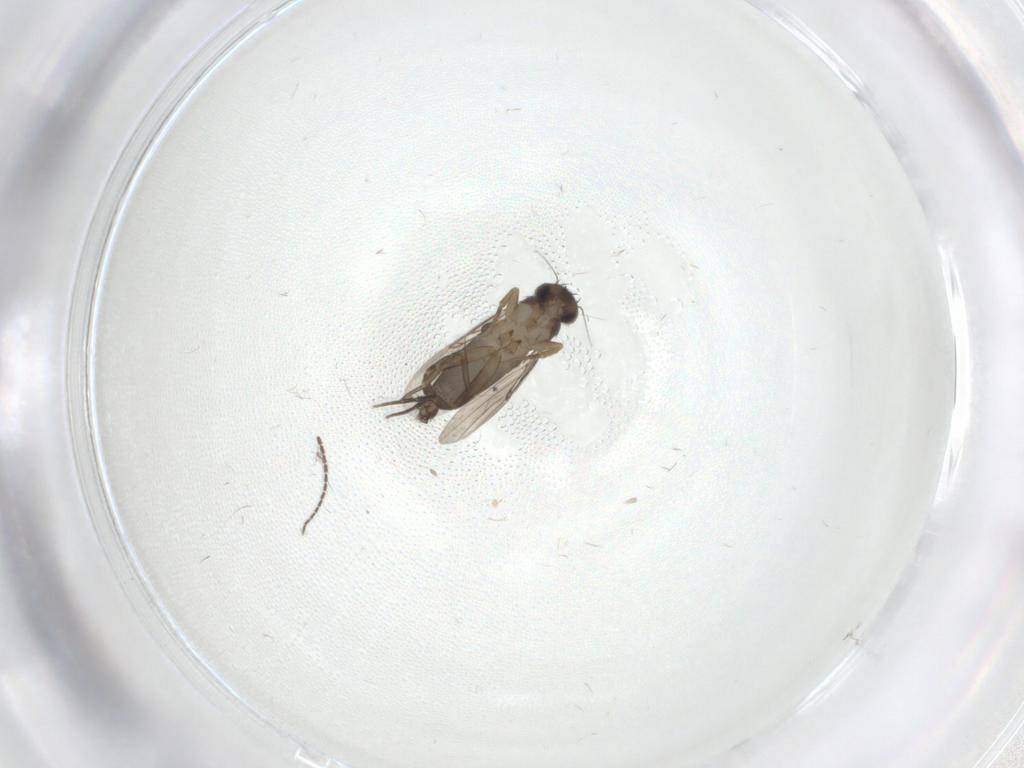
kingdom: Animalia
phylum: Arthropoda
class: Insecta
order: Diptera
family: Phoridae
